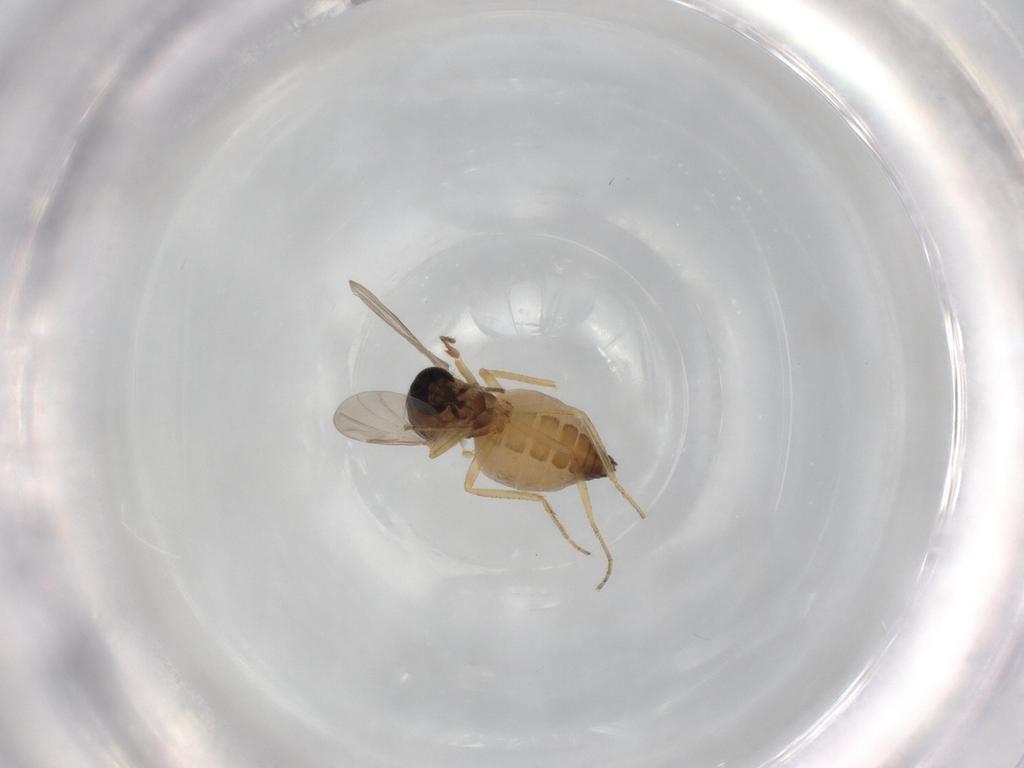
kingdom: Animalia
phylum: Arthropoda
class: Insecta
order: Diptera
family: Ceratopogonidae
